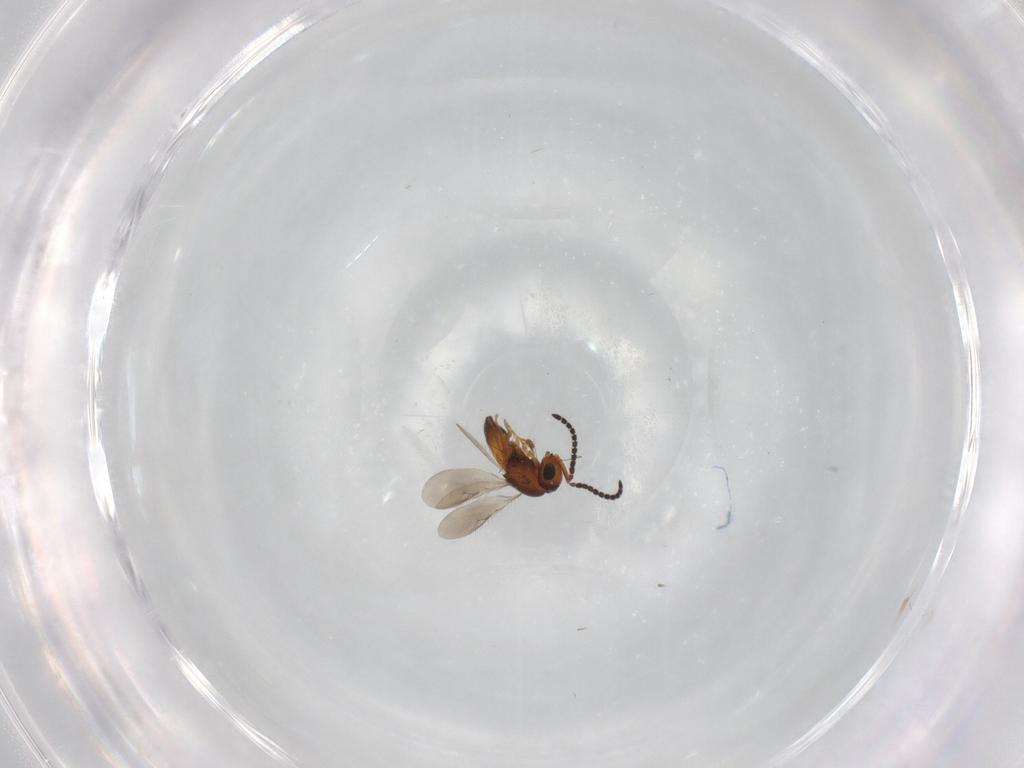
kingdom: Animalia
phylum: Arthropoda
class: Insecta
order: Hymenoptera
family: Scelionidae
